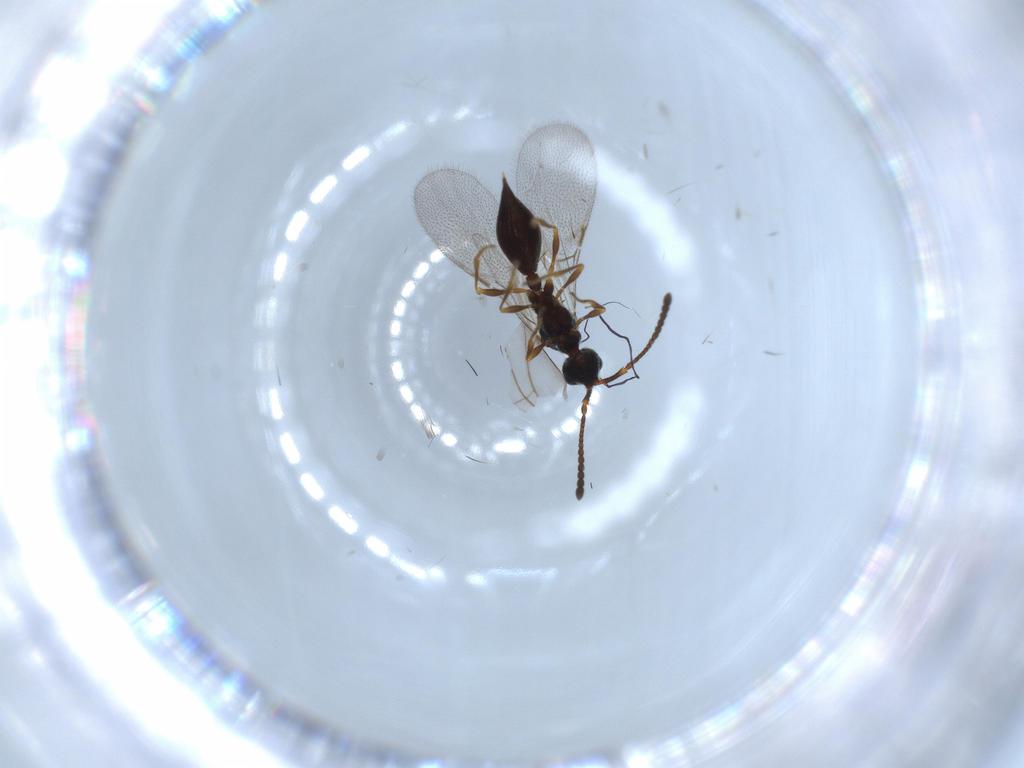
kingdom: Animalia
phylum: Arthropoda
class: Insecta
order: Hymenoptera
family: Diapriidae
